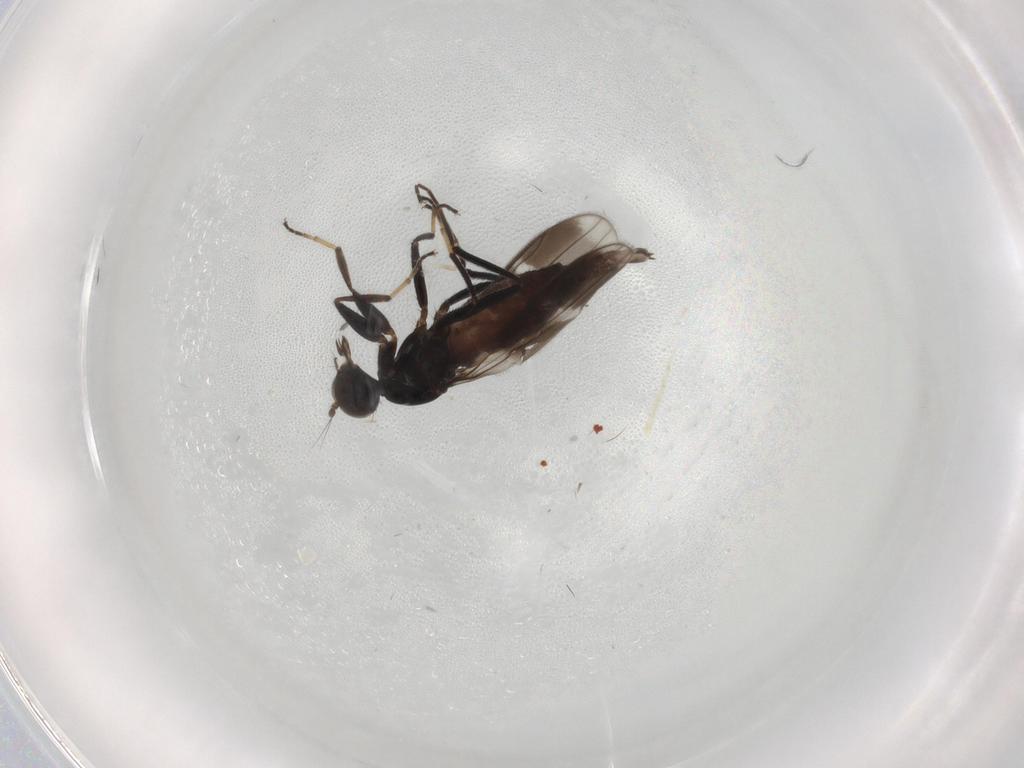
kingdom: Animalia
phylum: Arthropoda
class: Insecta
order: Diptera
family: Hybotidae
